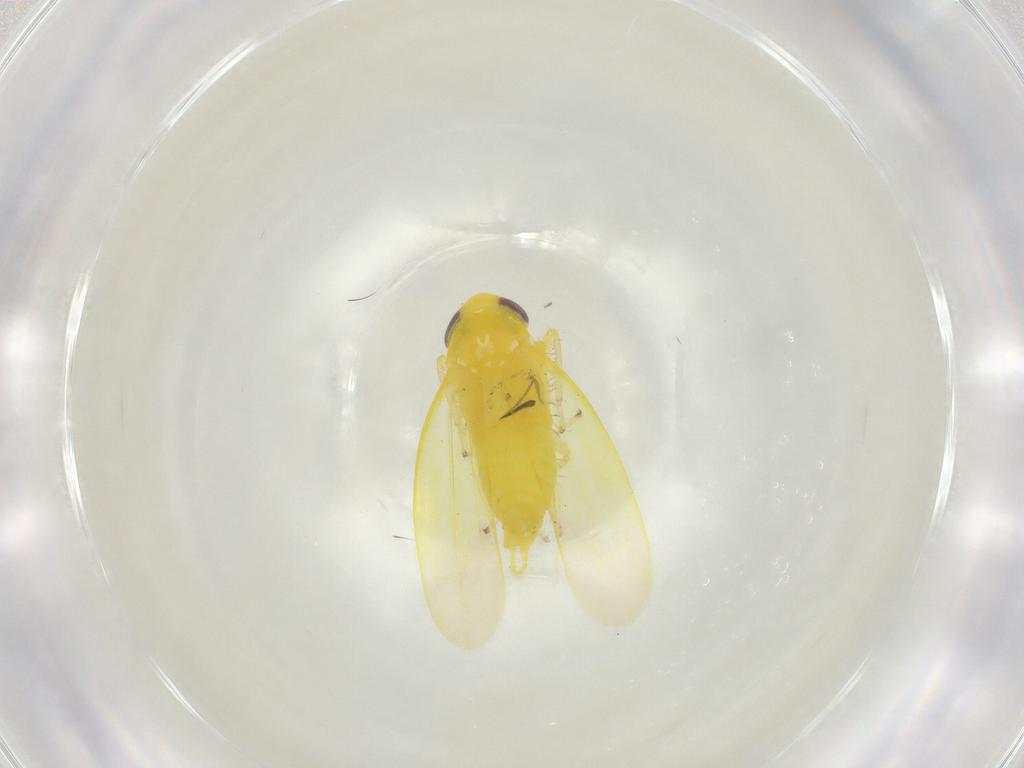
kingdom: Animalia
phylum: Arthropoda
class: Insecta
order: Hemiptera
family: Cicadellidae
